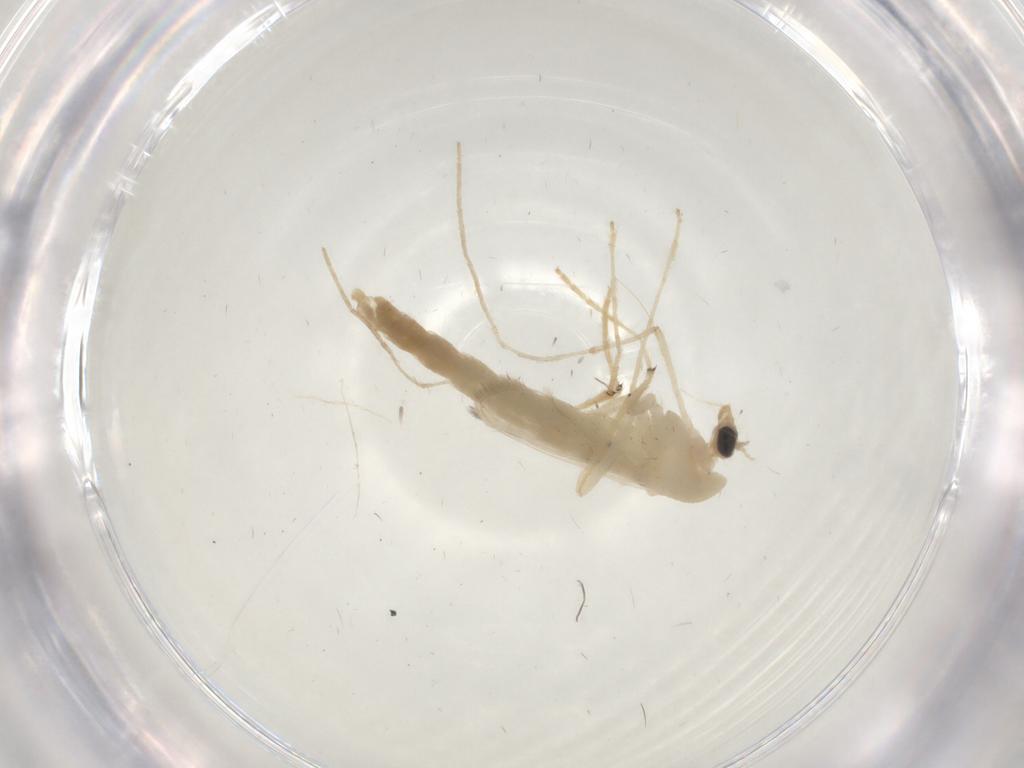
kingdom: Animalia
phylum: Arthropoda
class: Insecta
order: Diptera
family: Chironomidae
